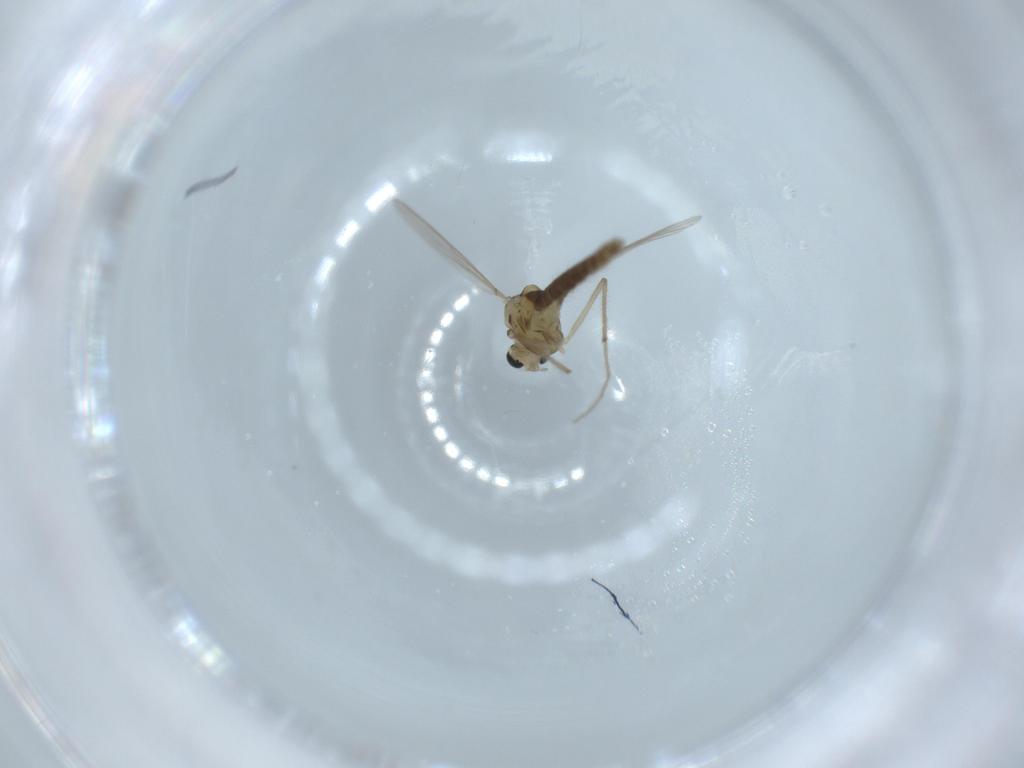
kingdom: Animalia
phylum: Arthropoda
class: Insecta
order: Diptera
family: Chironomidae
